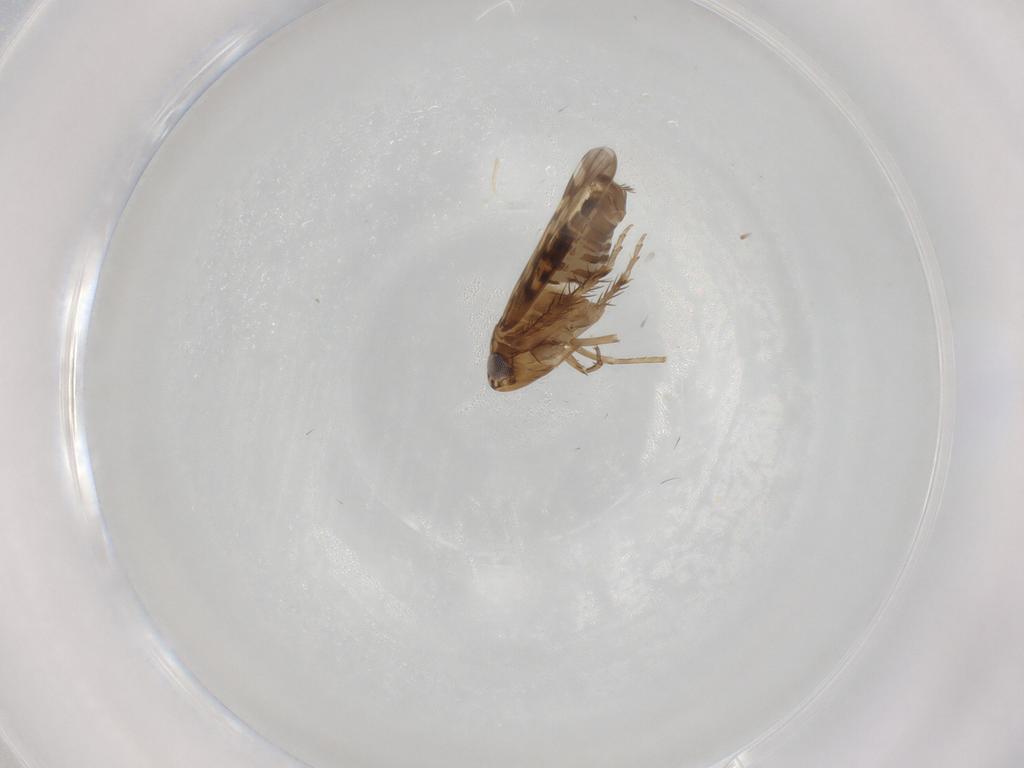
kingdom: Animalia
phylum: Arthropoda
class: Insecta
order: Hemiptera
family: Cicadellidae
